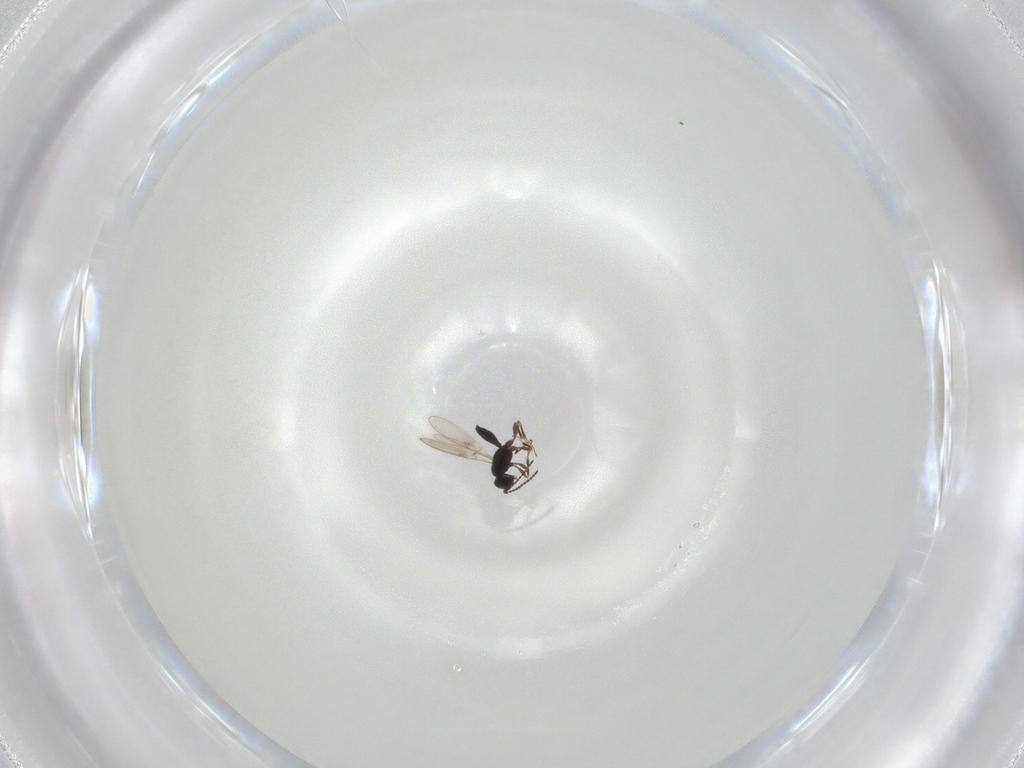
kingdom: Animalia
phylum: Arthropoda
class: Insecta
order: Hymenoptera
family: Scelionidae
